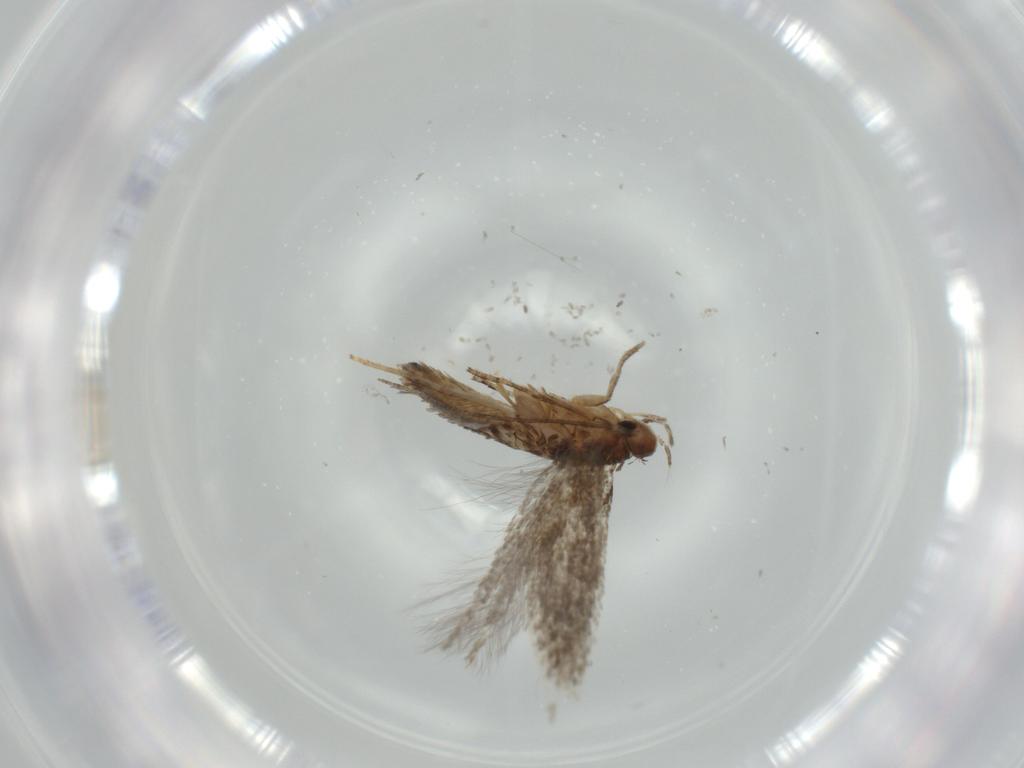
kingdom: Animalia
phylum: Arthropoda
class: Insecta
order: Lepidoptera
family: Gelechiidae
